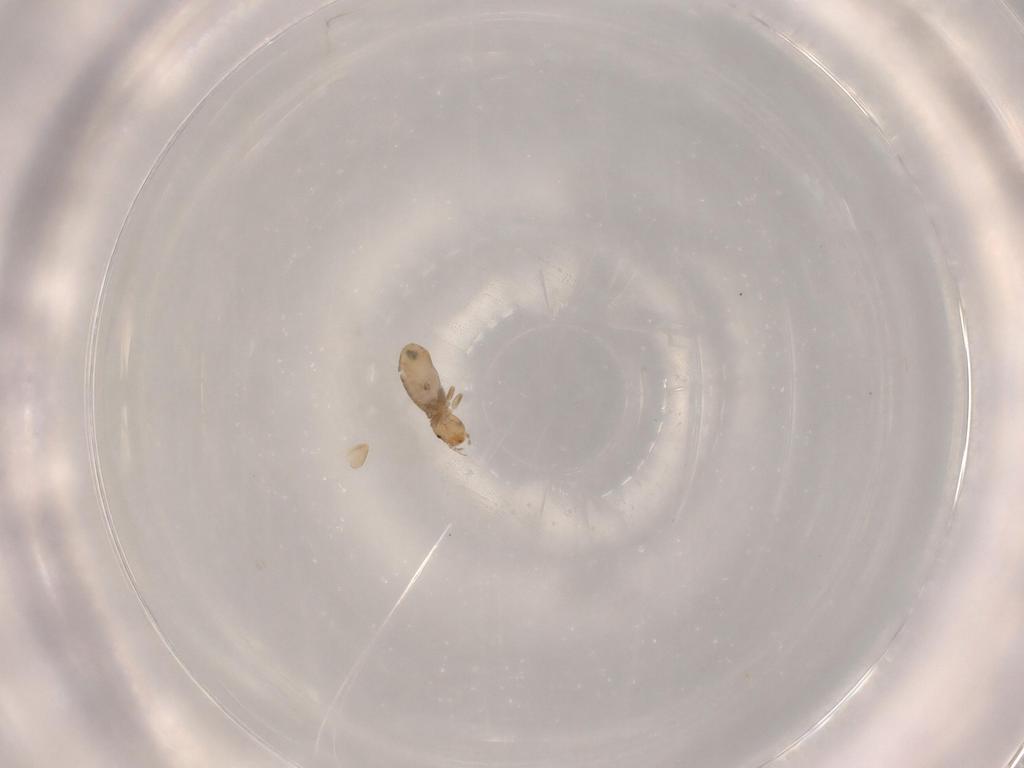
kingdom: Animalia
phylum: Arthropoda
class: Insecta
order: Psocodea
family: Liposcelididae
